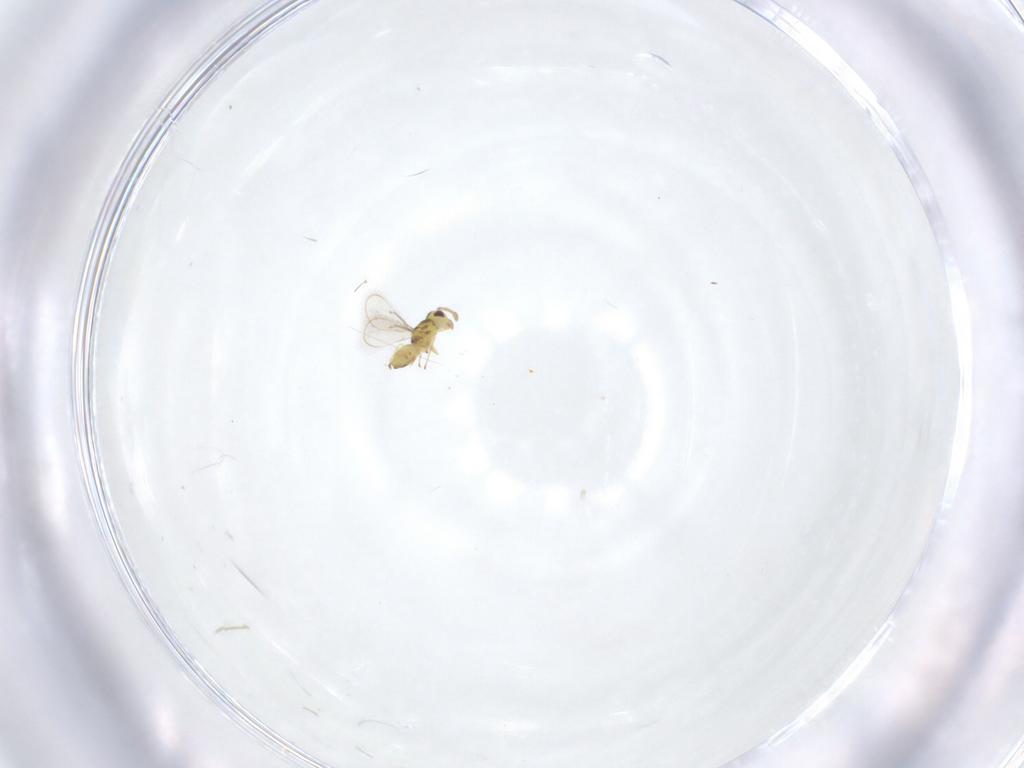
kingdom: Animalia
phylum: Arthropoda
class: Insecta
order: Hymenoptera
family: Eulophidae
